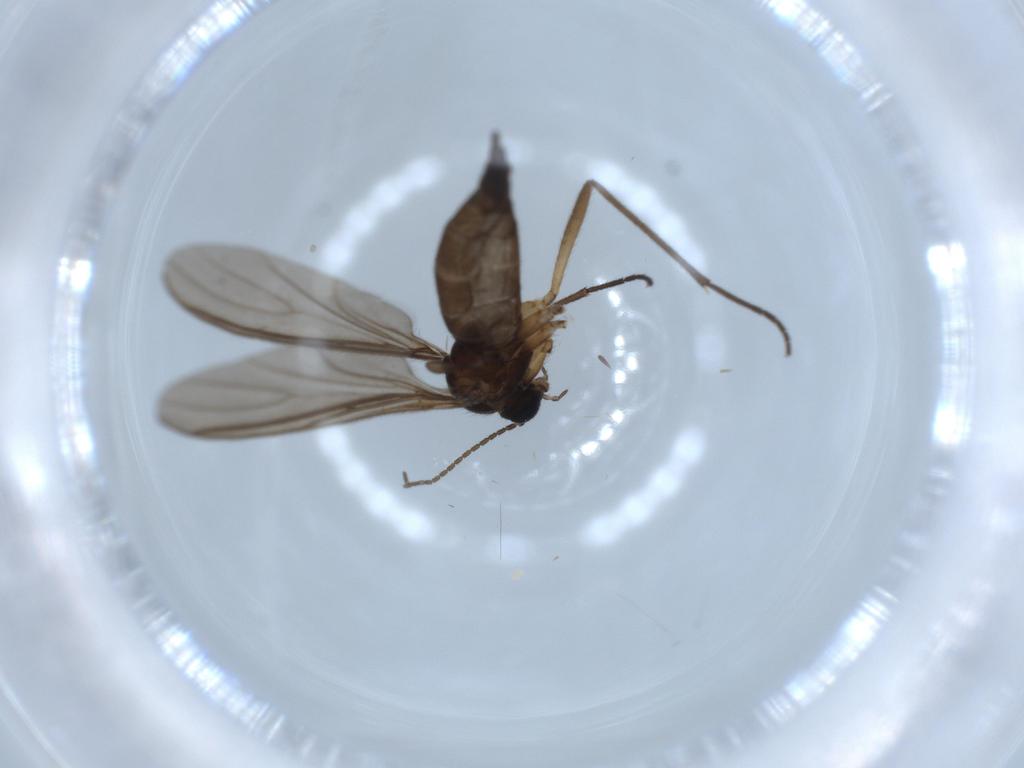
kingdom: Animalia
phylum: Arthropoda
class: Insecta
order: Diptera
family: Sciaridae
